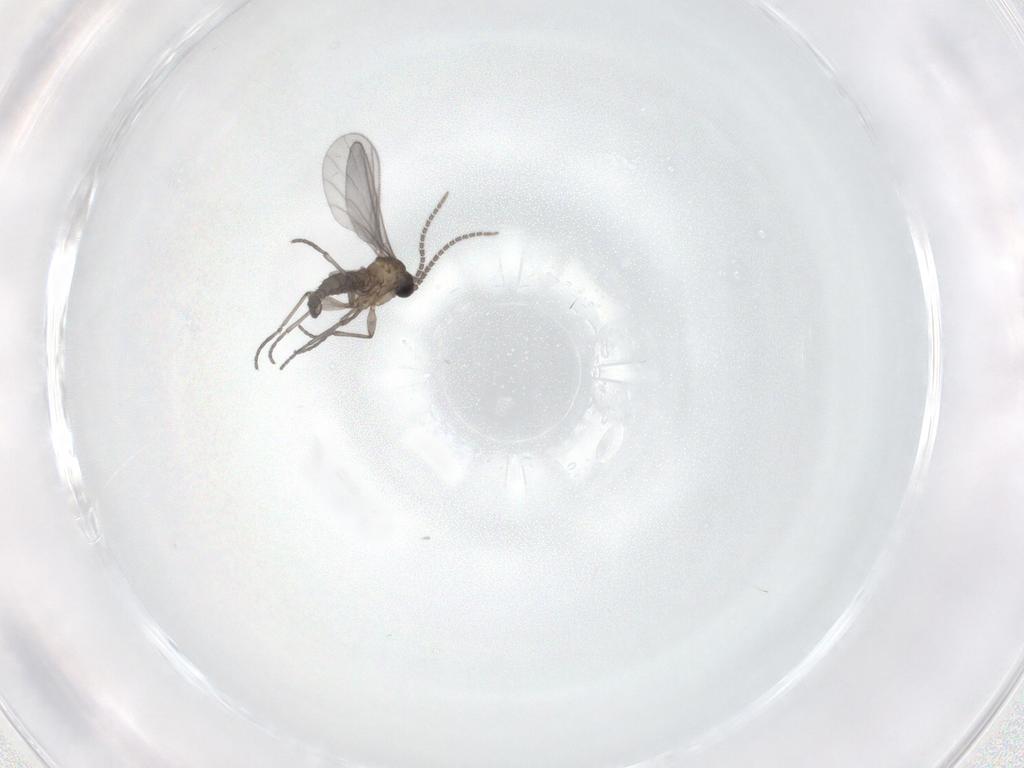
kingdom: Animalia
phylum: Arthropoda
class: Insecta
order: Diptera
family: Sciaridae
